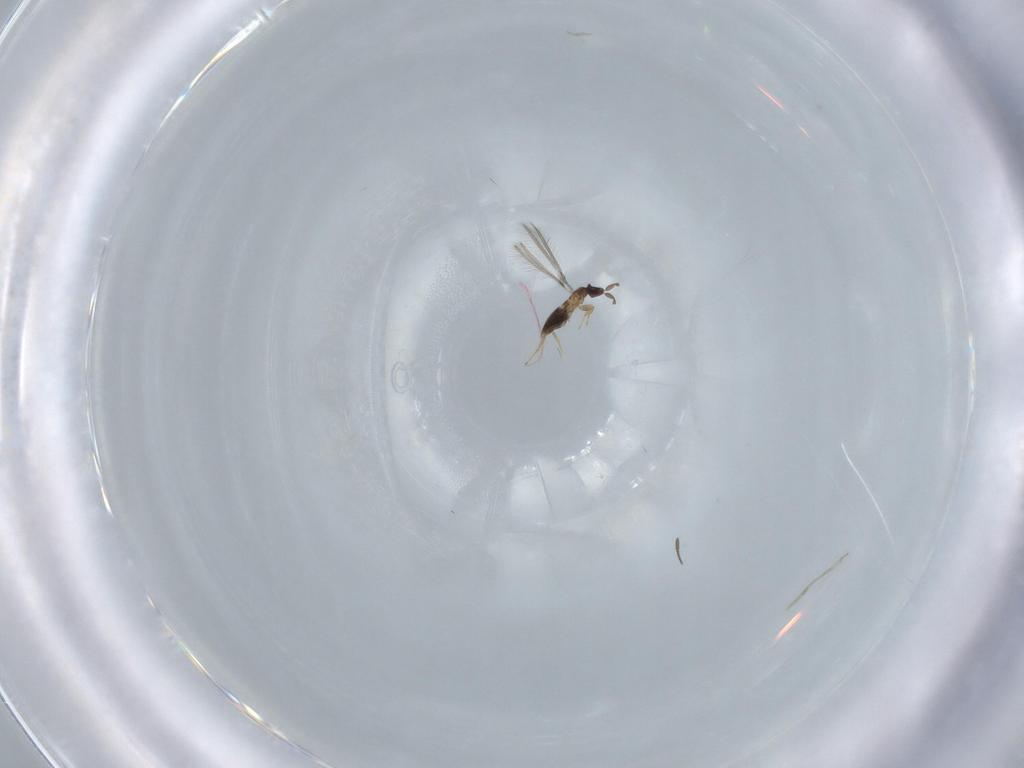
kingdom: Animalia
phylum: Arthropoda
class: Insecta
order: Hymenoptera
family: Mymaridae
